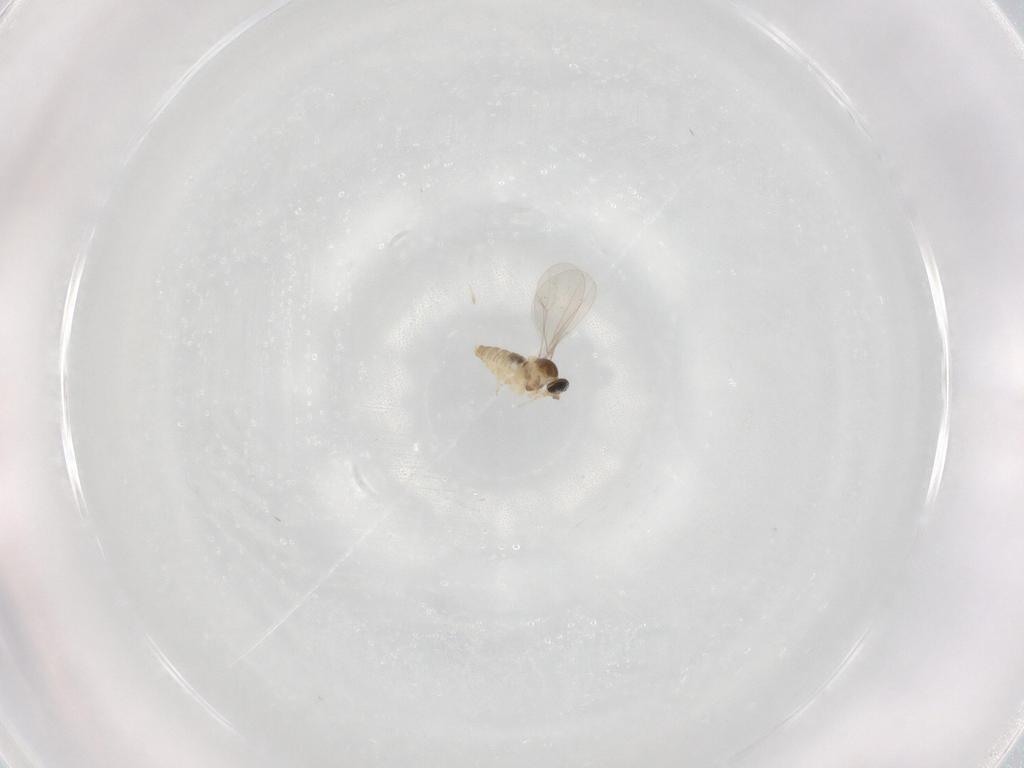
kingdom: Animalia
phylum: Arthropoda
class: Insecta
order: Diptera
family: Cecidomyiidae
